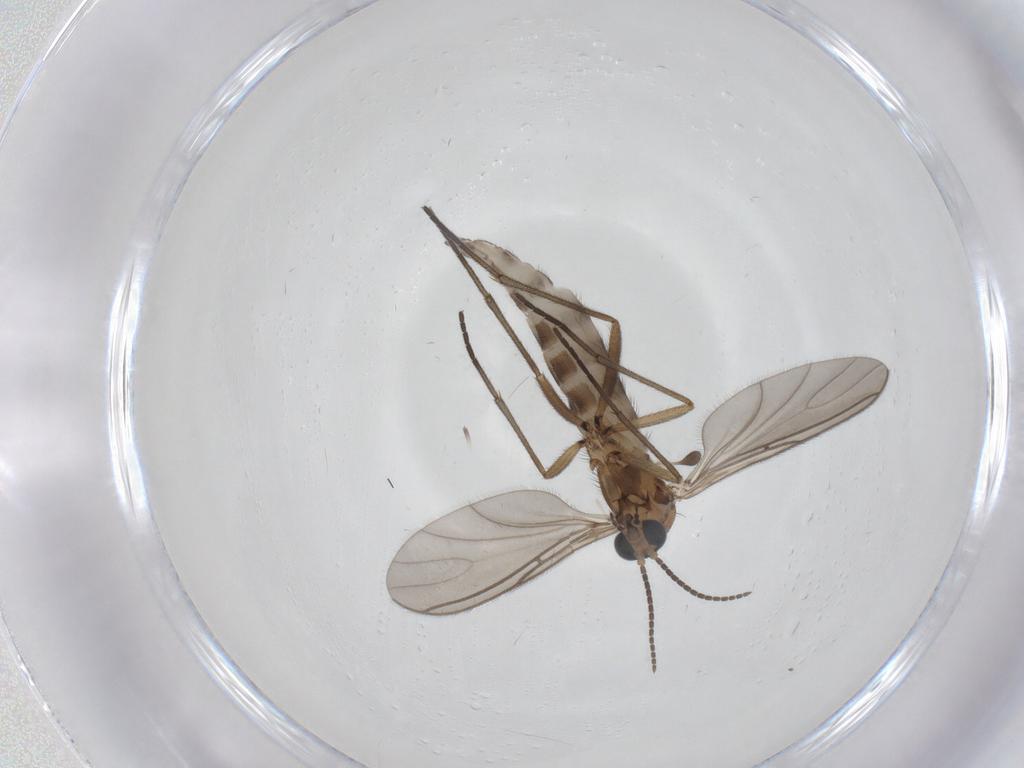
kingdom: Animalia
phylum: Arthropoda
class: Insecta
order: Diptera
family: Sciaridae
